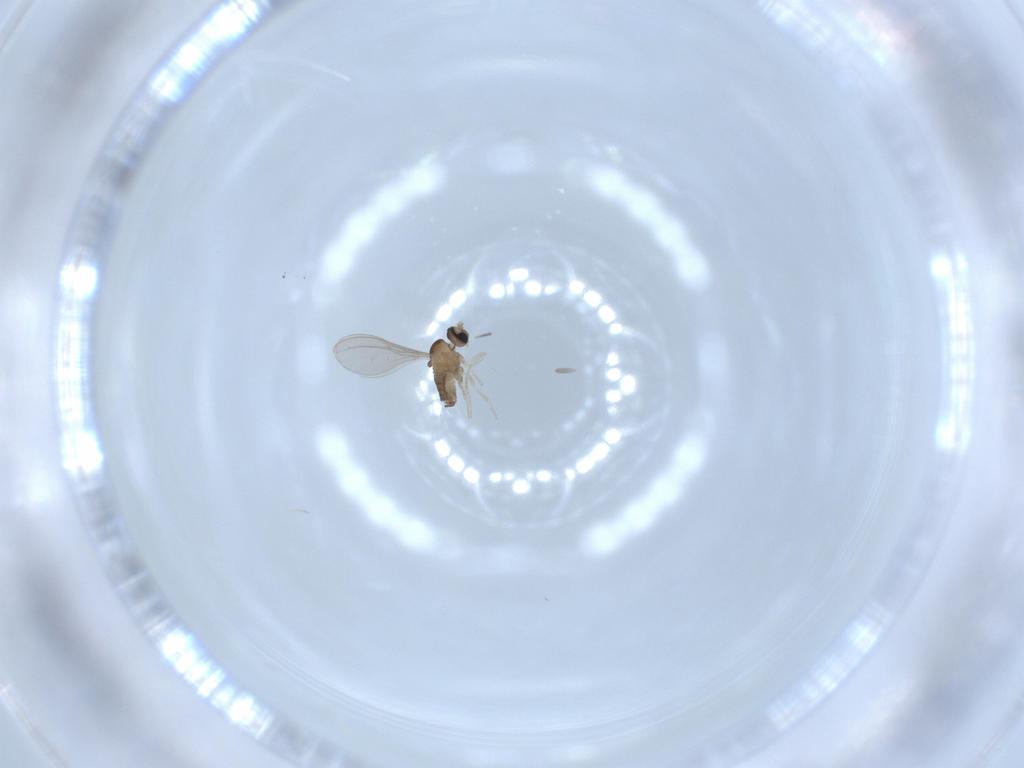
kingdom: Animalia
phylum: Arthropoda
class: Insecta
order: Diptera
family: Cecidomyiidae
